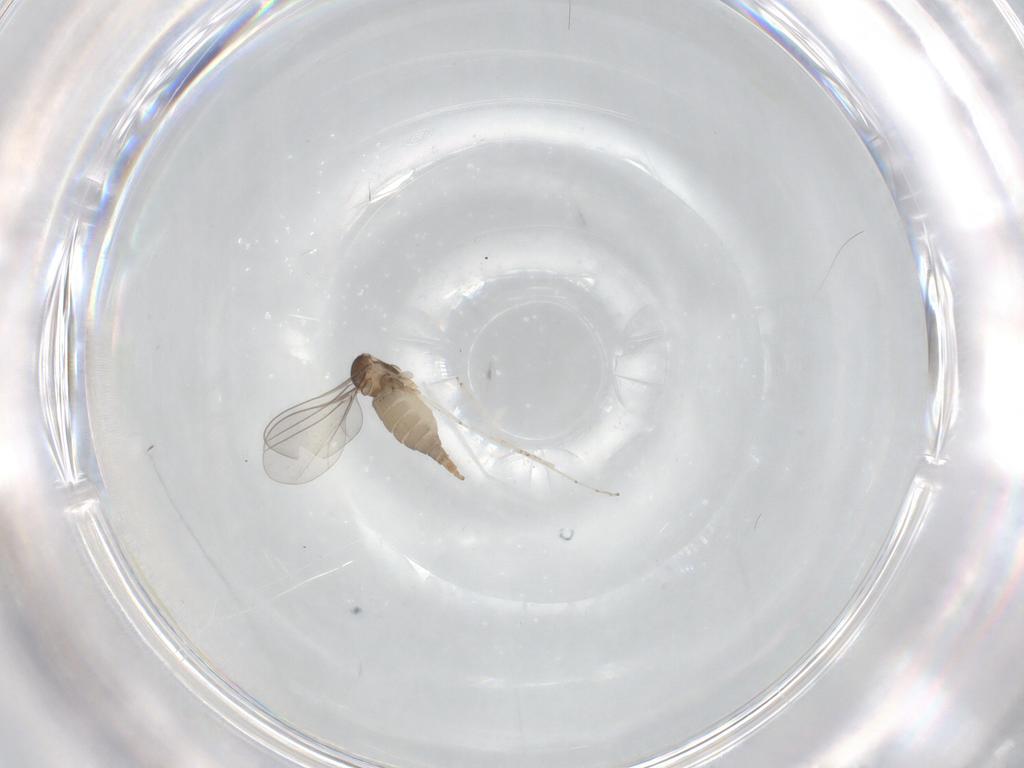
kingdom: Animalia
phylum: Arthropoda
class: Insecta
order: Diptera
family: Cecidomyiidae
